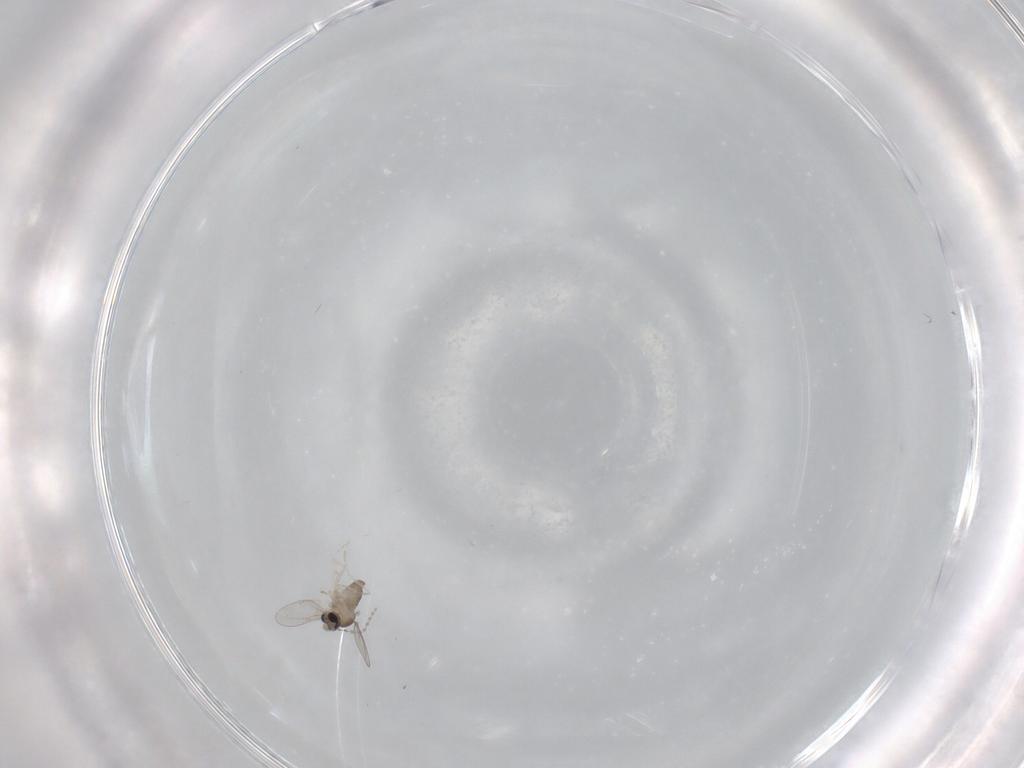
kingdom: Animalia
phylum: Arthropoda
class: Insecta
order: Diptera
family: Cecidomyiidae
